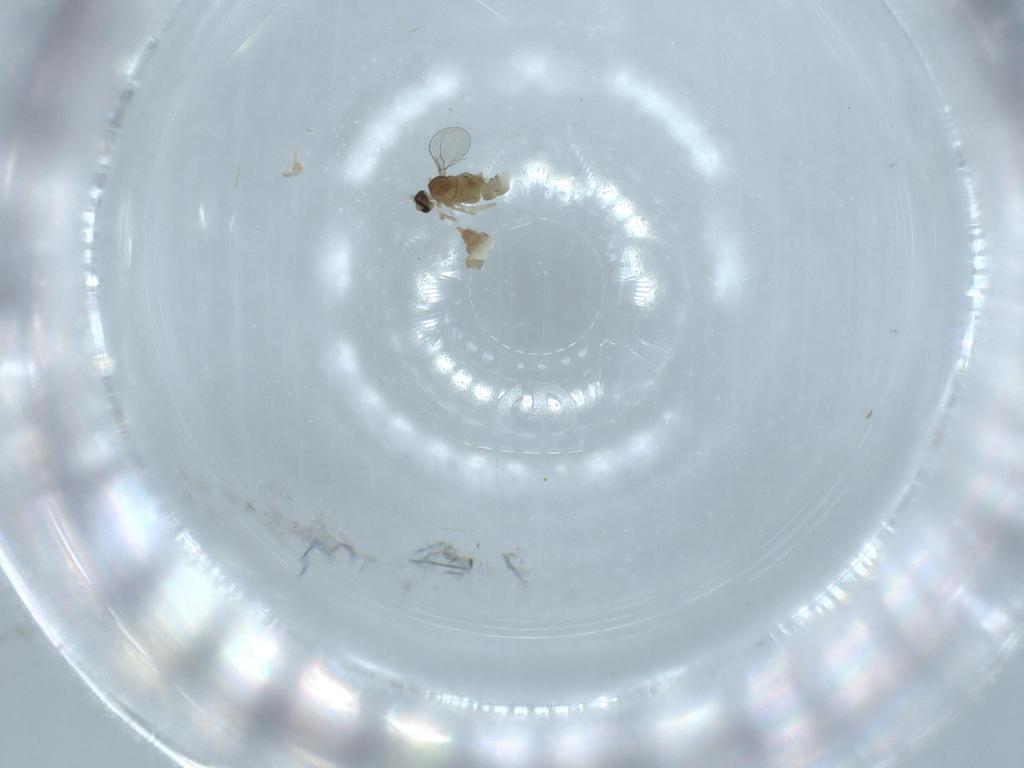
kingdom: Animalia
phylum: Arthropoda
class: Insecta
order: Diptera
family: Cecidomyiidae
